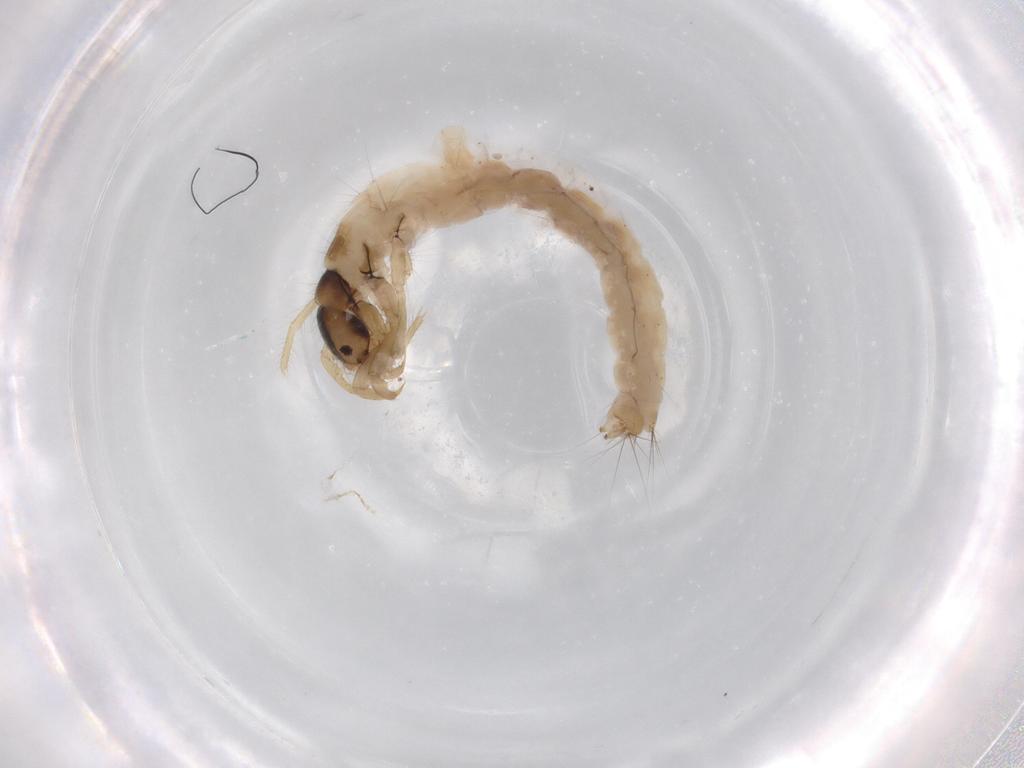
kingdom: Animalia
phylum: Arthropoda
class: Insecta
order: Trichoptera
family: Molannidae
